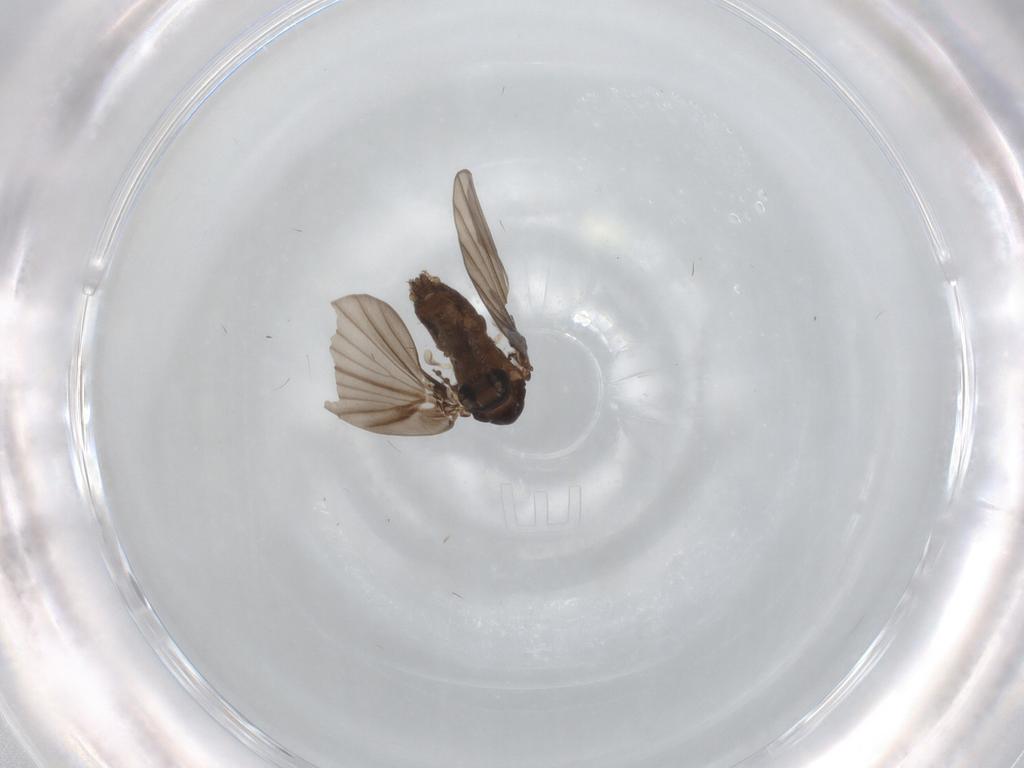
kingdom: Animalia
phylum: Arthropoda
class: Insecta
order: Diptera
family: Psychodidae
